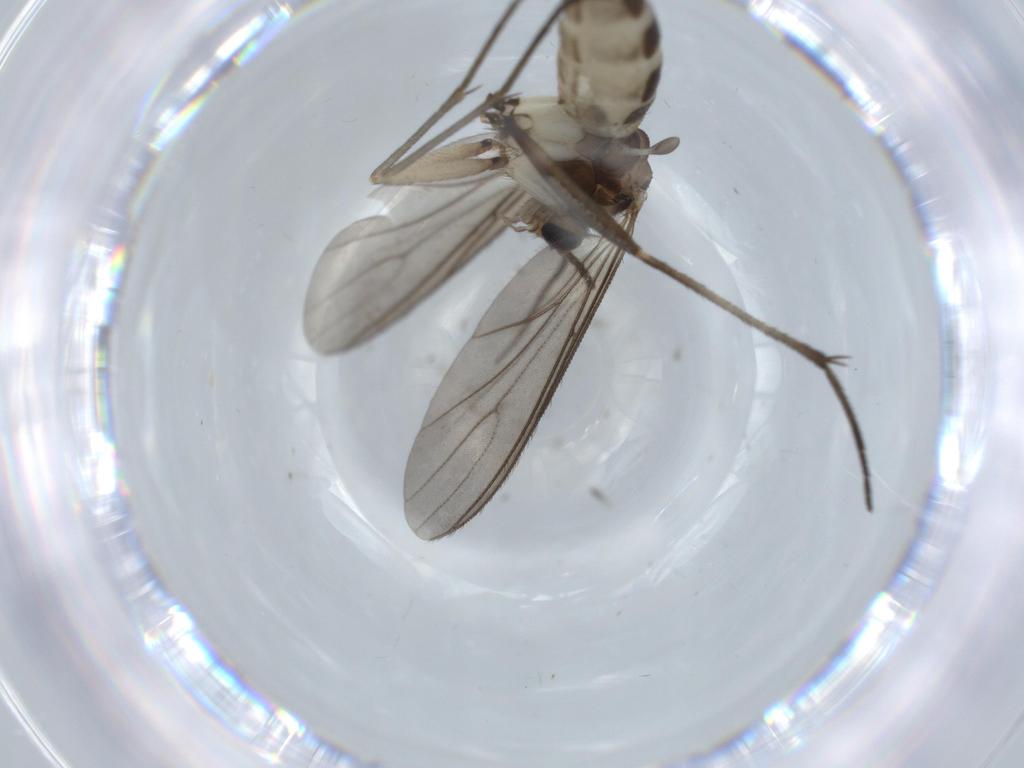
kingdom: Animalia
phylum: Arthropoda
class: Insecta
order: Diptera
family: Sciaridae
